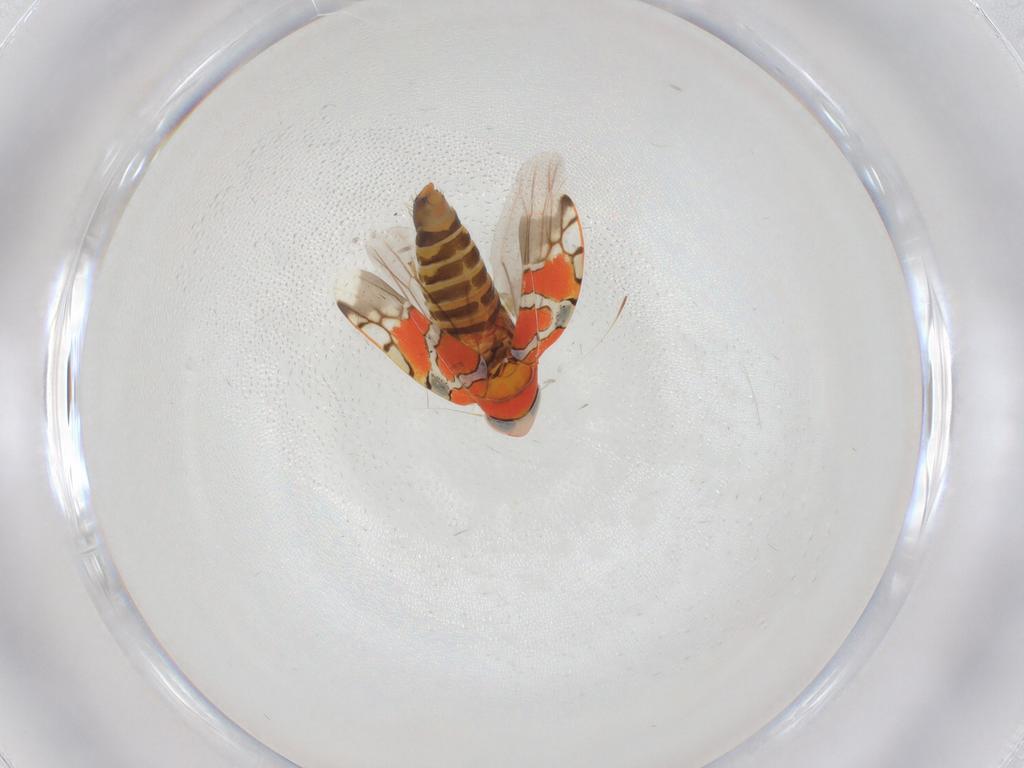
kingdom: Animalia
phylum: Arthropoda
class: Insecta
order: Hemiptera
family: Cicadellidae
